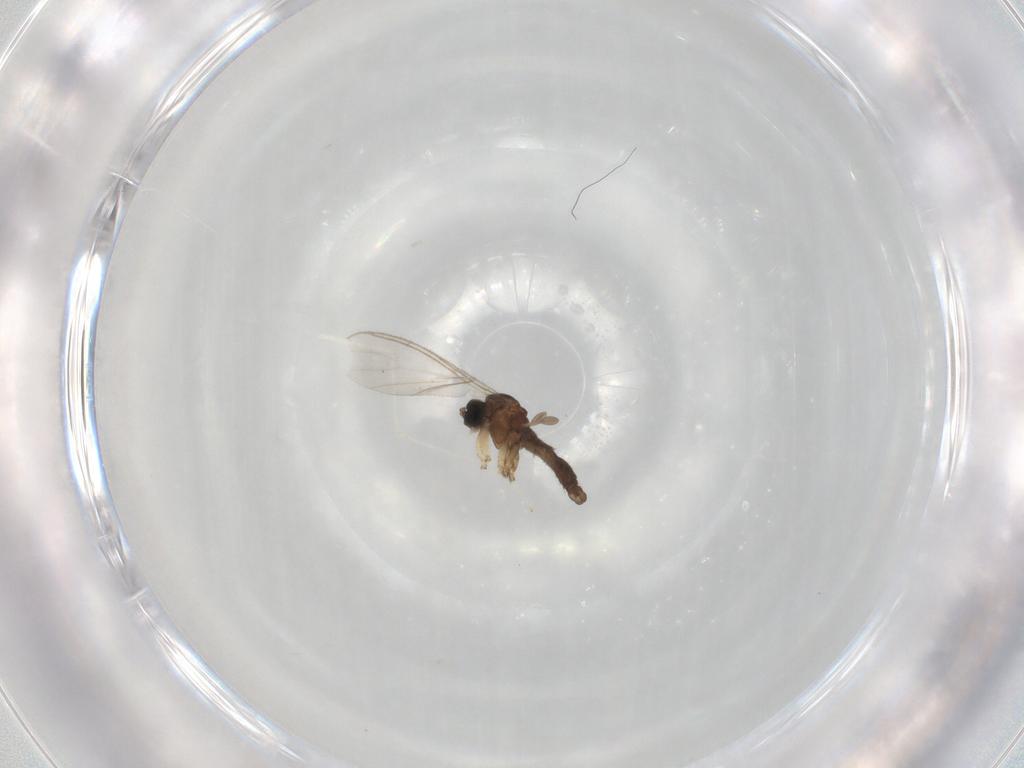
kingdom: Animalia
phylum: Arthropoda
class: Insecta
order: Diptera
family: Cecidomyiidae
